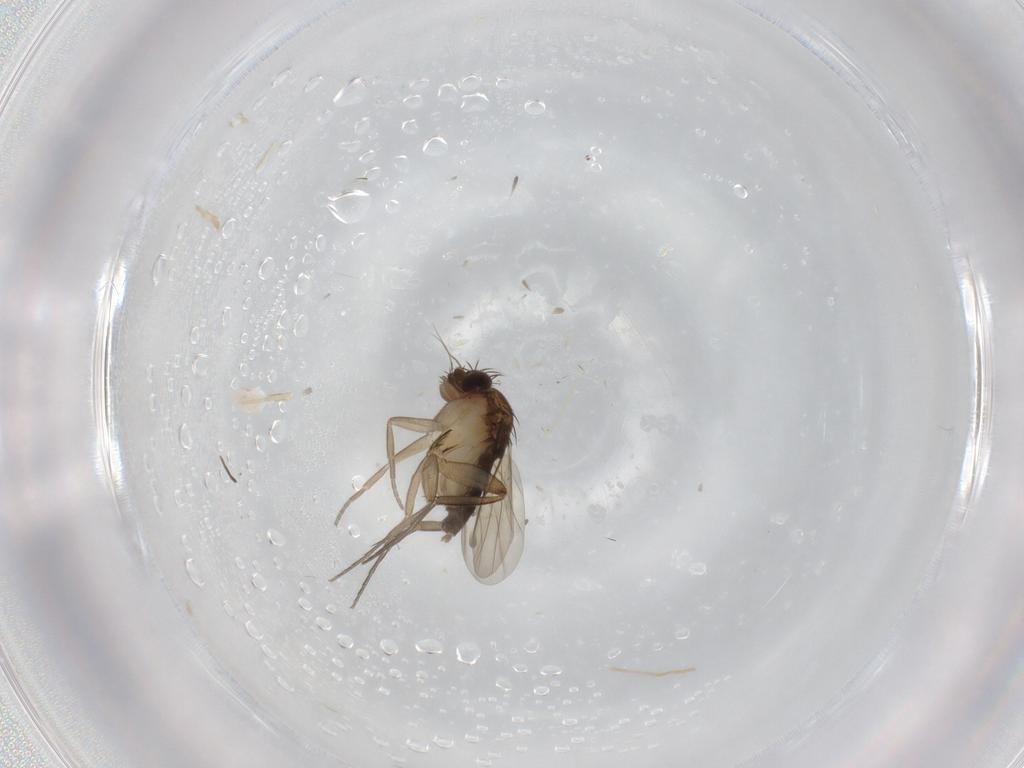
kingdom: Animalia
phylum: Arthropoda
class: Insecta
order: Diptera
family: Phoridae
